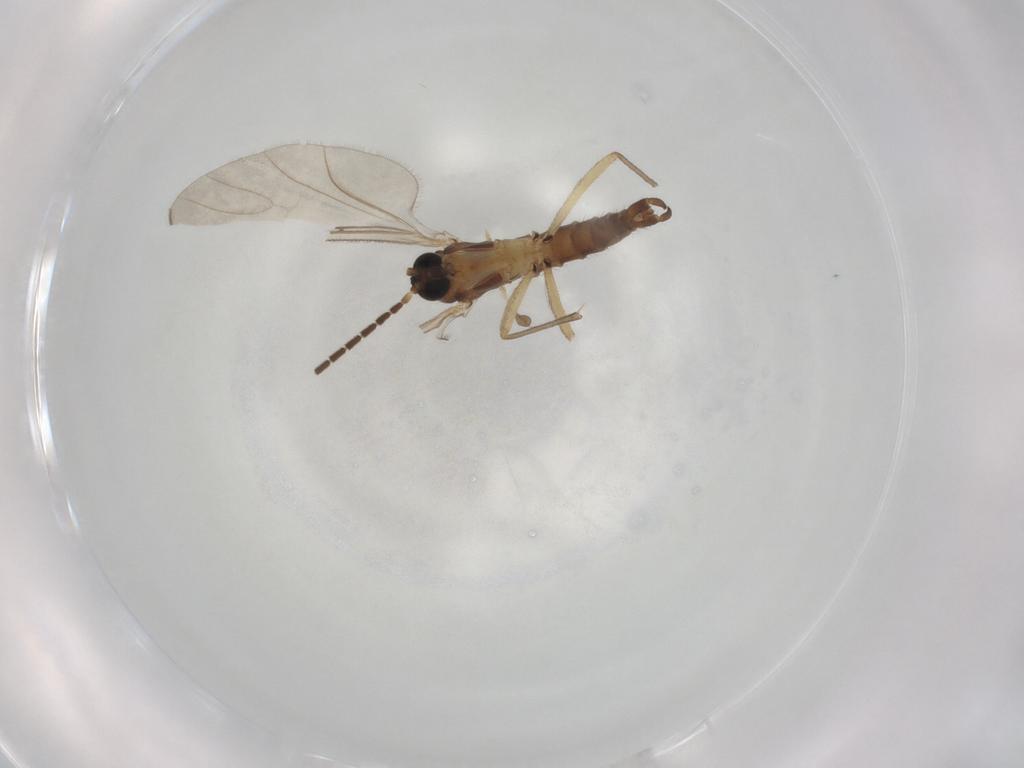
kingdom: Animalia
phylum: Arthropoda
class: Insecta
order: Diptera
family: Sciaridae
